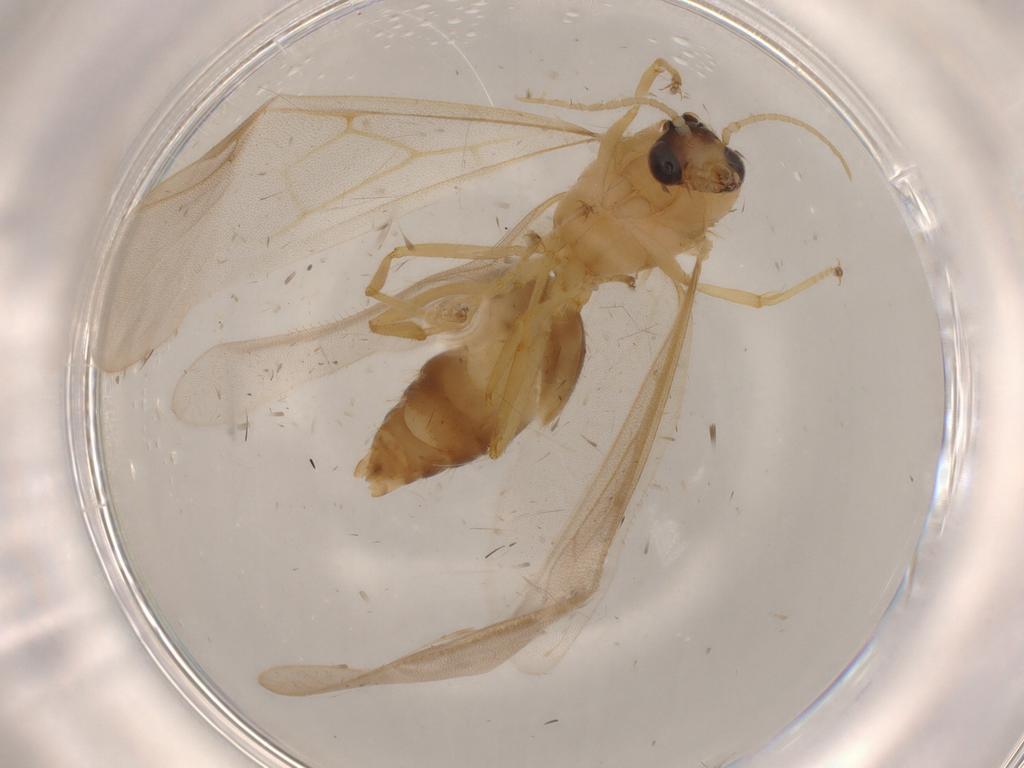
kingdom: Animalia
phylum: Arthropoda
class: Insecta
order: Hymenoptera
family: Formicidae
